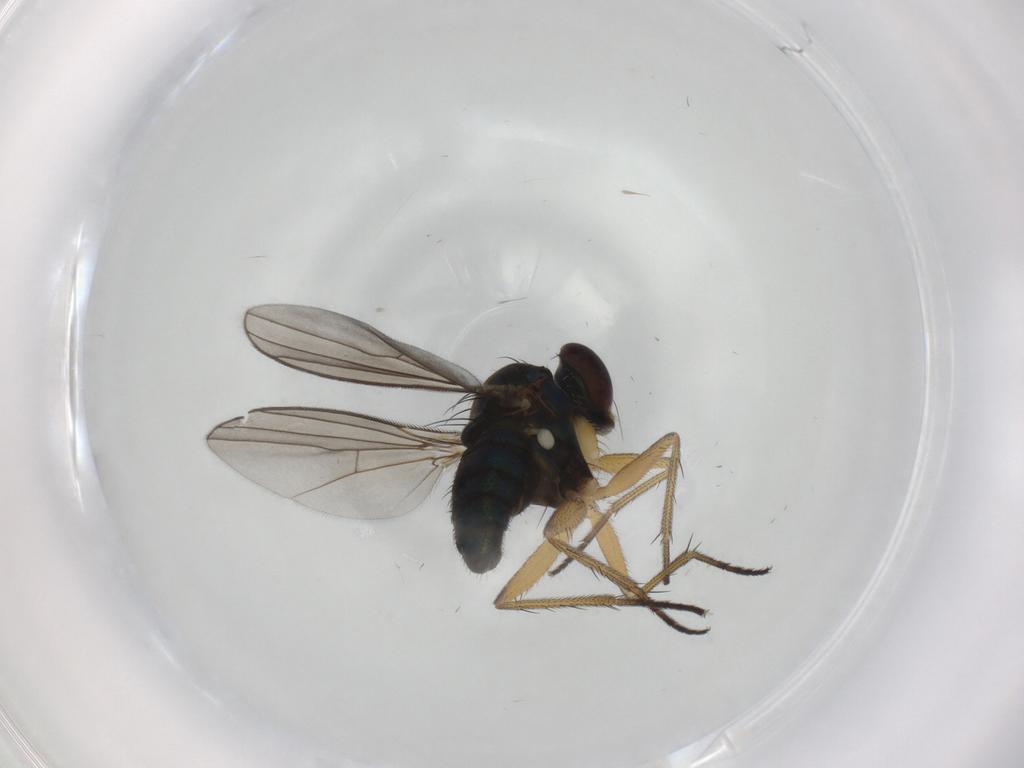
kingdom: Animalia
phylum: Arthropoda
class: Insecta
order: Diptera
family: Dolichopodidae
